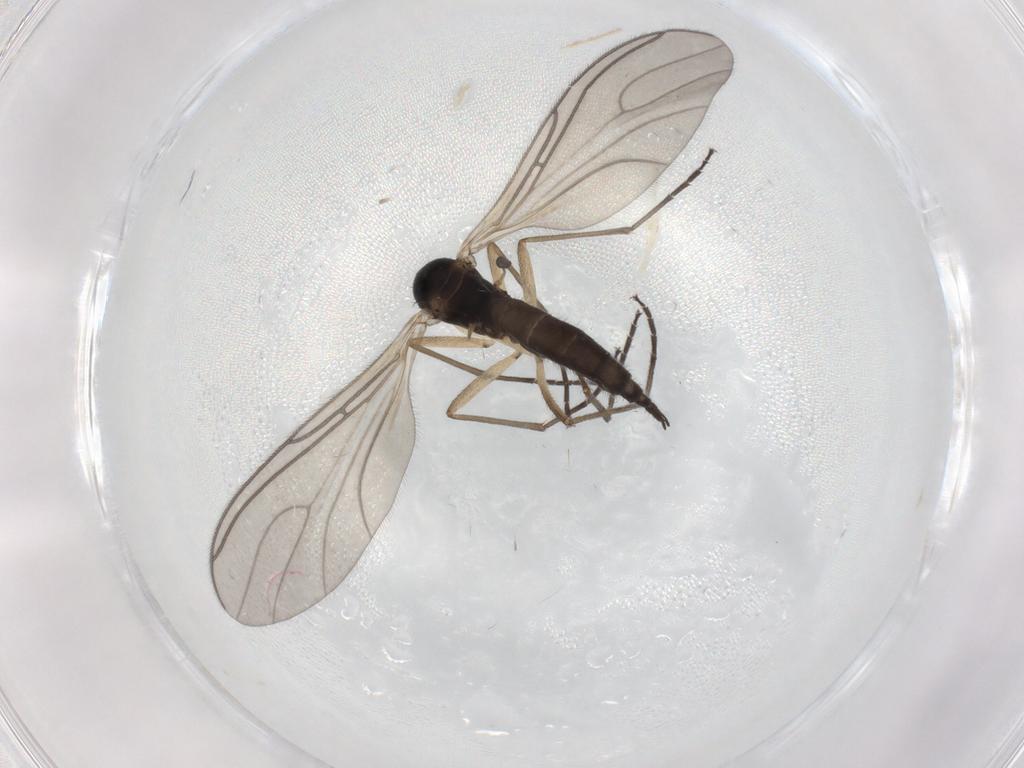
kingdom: Animalia
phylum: Arthropoda
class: Insecta
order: Diptera
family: Sciaridae
